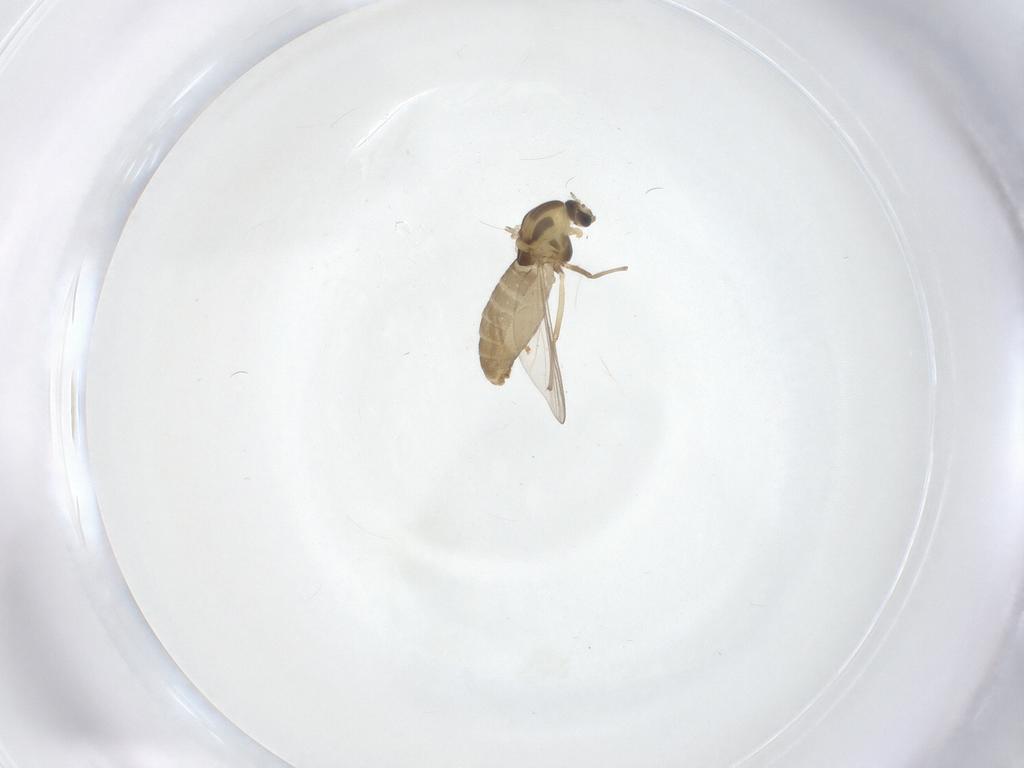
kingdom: Animalia
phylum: Arthropoda
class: Insecta
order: Diptera
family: Chironomidae
